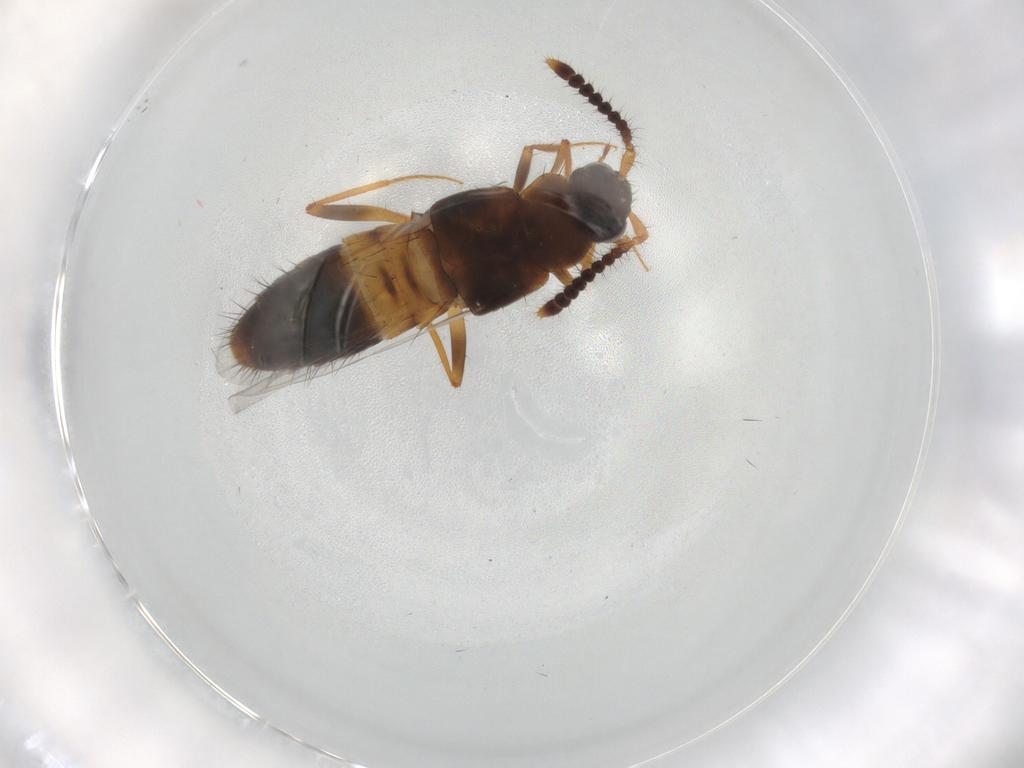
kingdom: Animalia
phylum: Arthropoda
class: Insecta
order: Coleoptera
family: Staphylinidae
